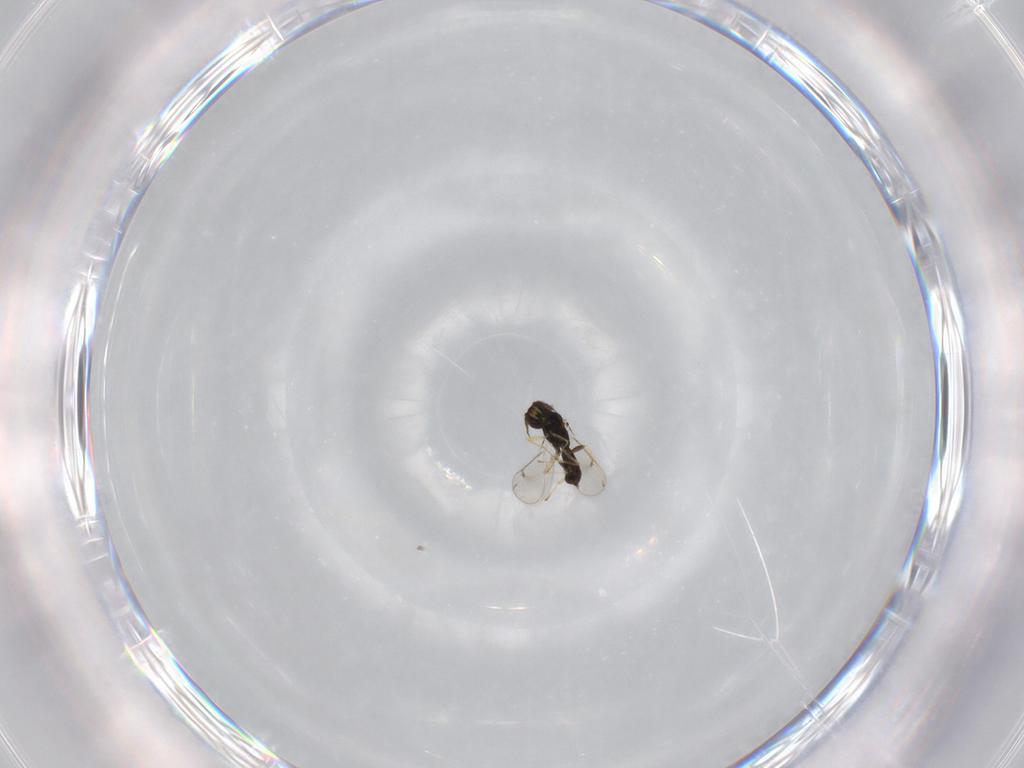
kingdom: Animalia
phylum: Arthropoda
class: Insecta
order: Hymenoptera
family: Eulophidae
